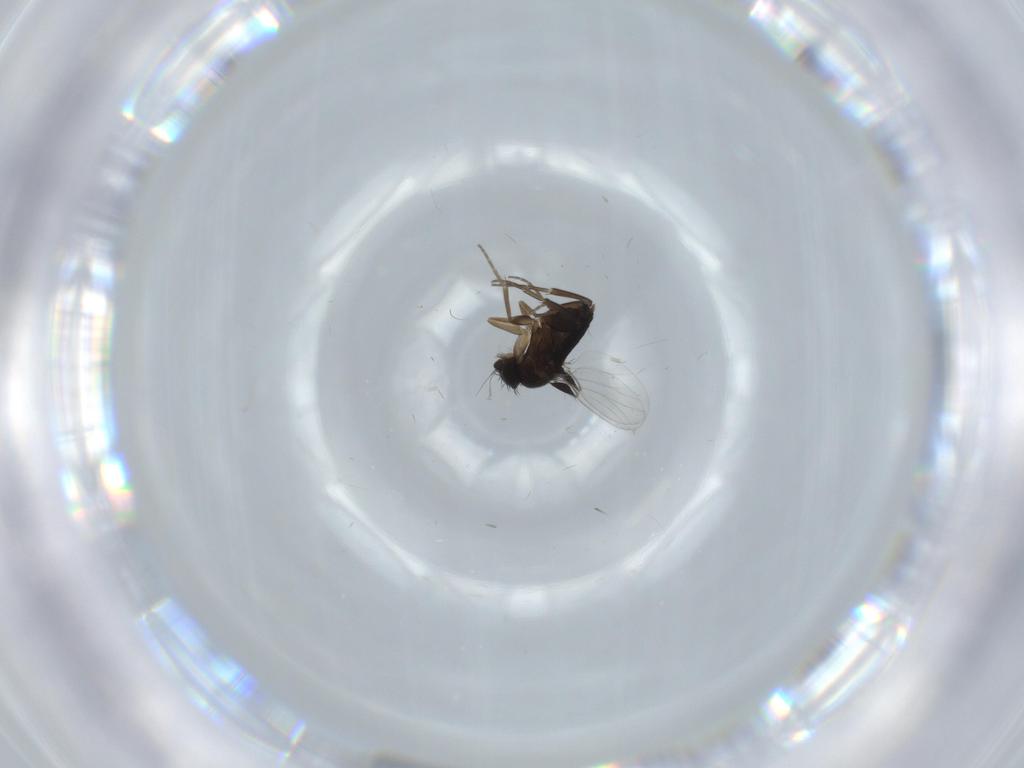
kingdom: Animalia
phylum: Arthropoda
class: Insecta
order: Diptera
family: Phoridae
